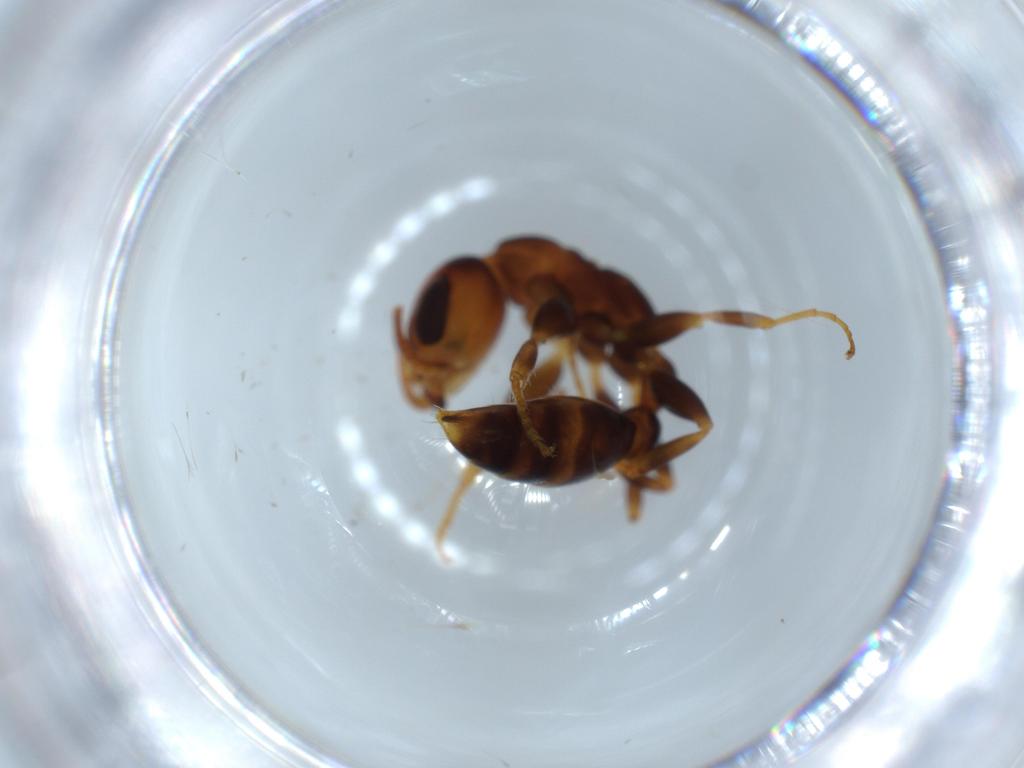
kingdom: Animalia
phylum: Arthropoda
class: Insecta
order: Hymenoptera
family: Formicidae
